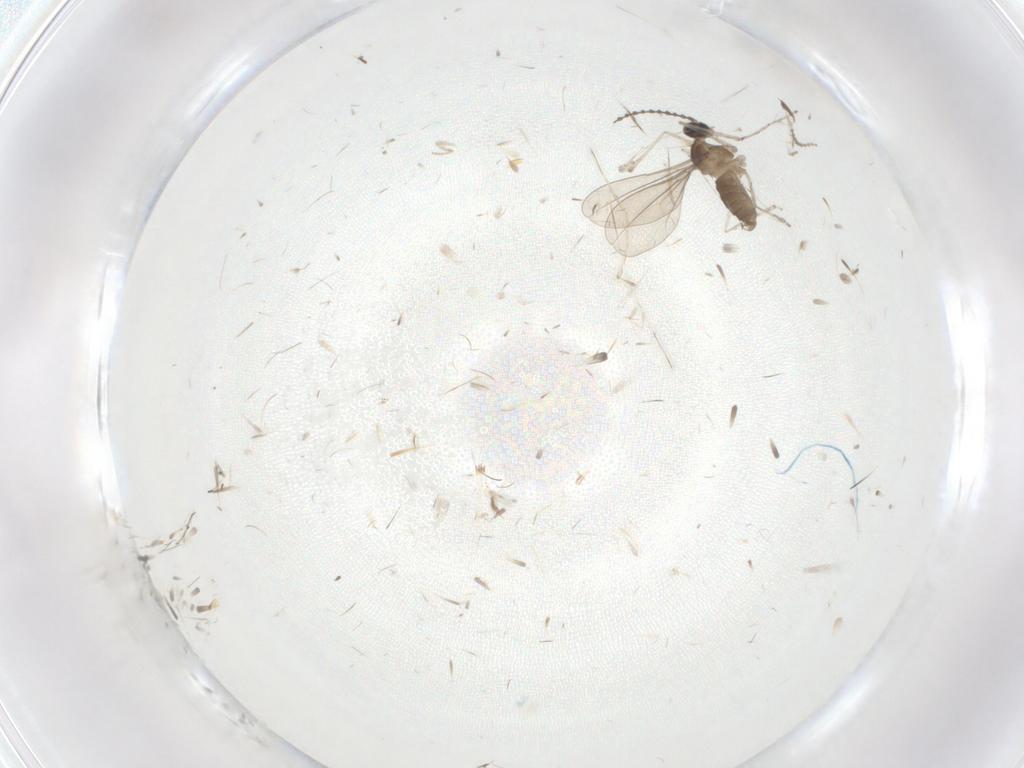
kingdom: Animalia
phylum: Arthropoda
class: Insecta
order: Diptera
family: Cecidomyiidae
